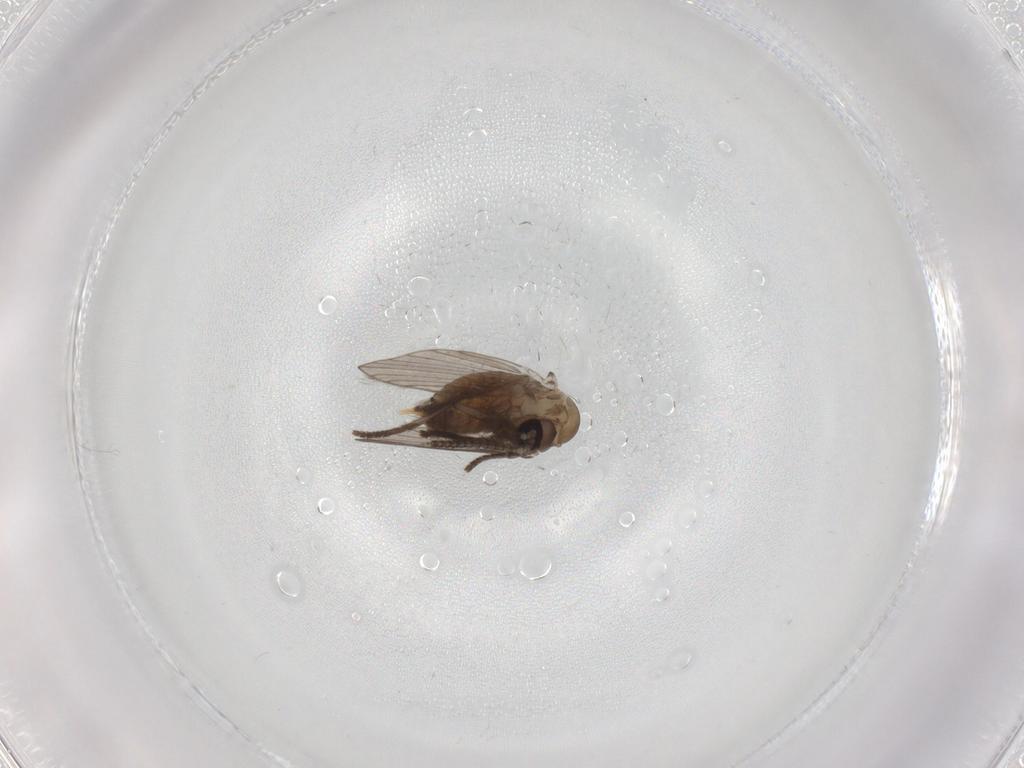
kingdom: Animalia
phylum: Arthropoda
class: Insecta
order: Diptera
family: Psychodidae
